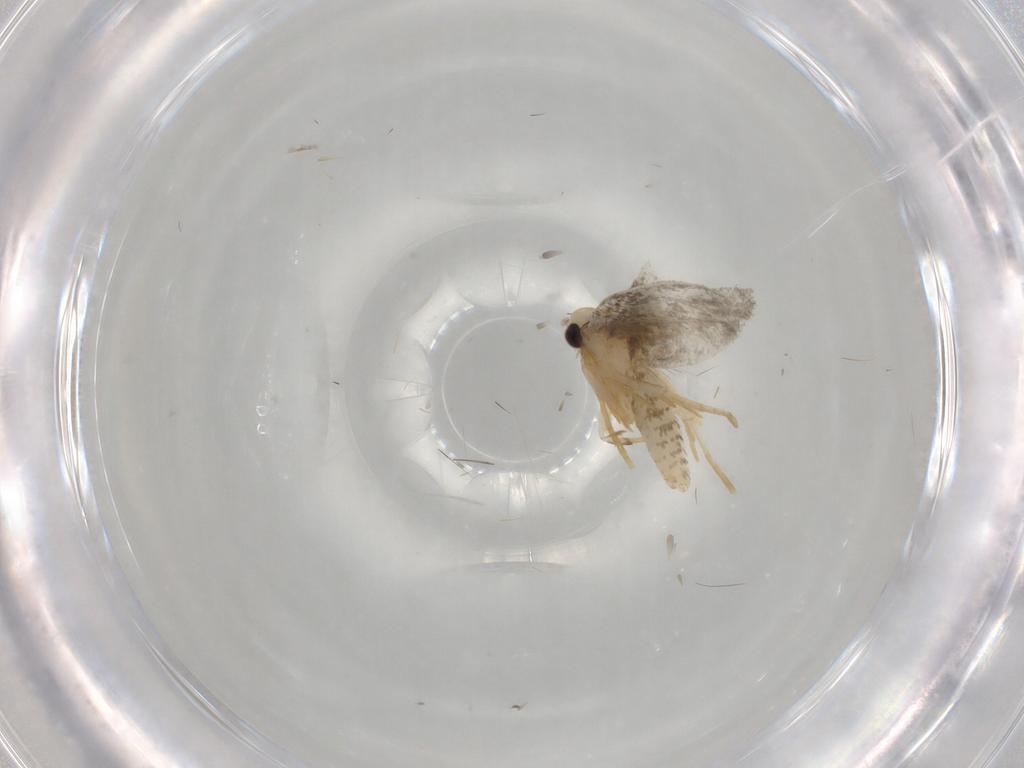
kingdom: Animalia
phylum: Arthropoda
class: Insecta
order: Lepidoptera
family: Psychidae
